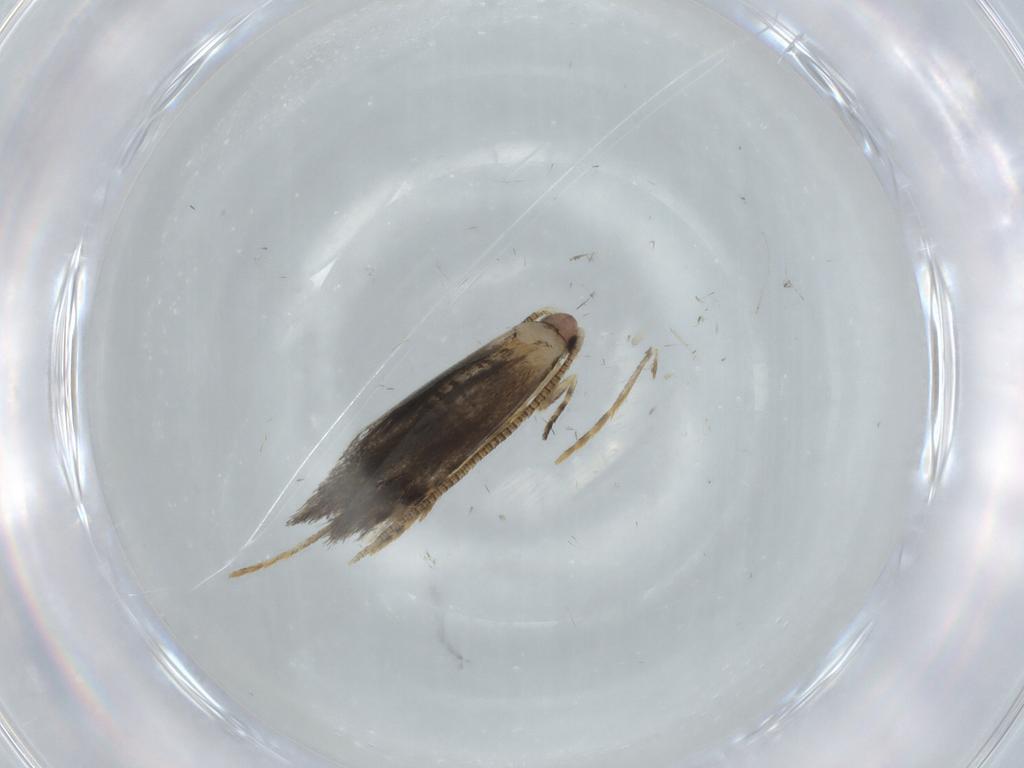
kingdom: Animalia
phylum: Arthropoda
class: Insecta
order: Lepidoptera
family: Tineidae
